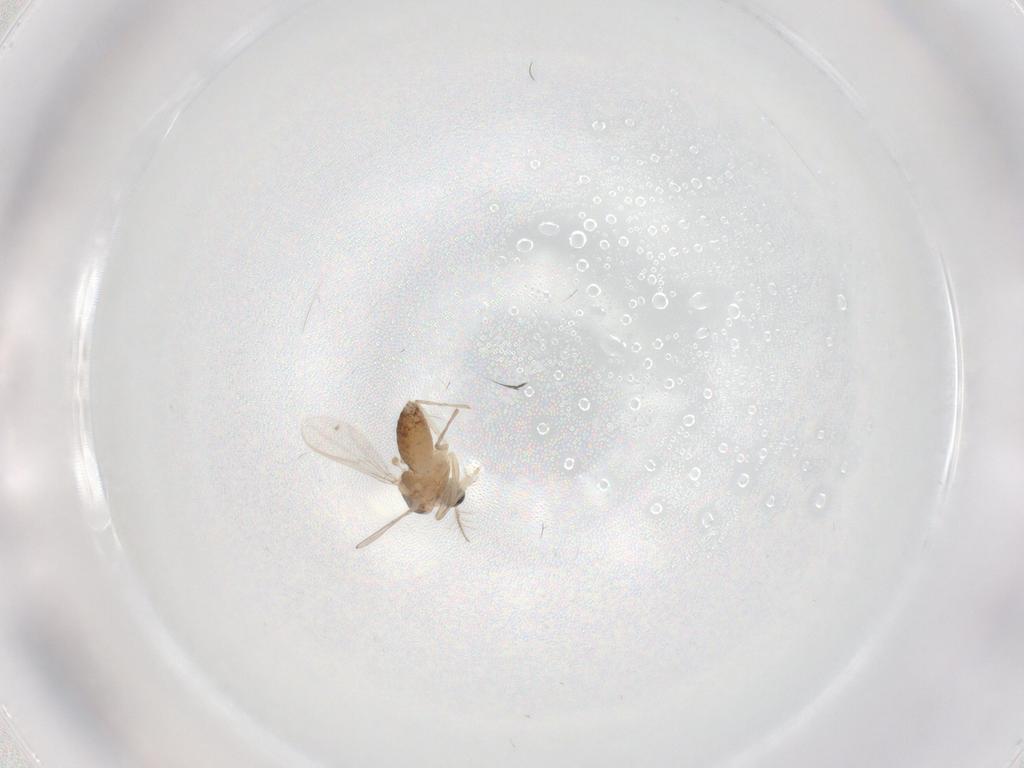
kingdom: Animalia
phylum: Arthropoda
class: Insecta
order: Diptera
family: Chironomidae
